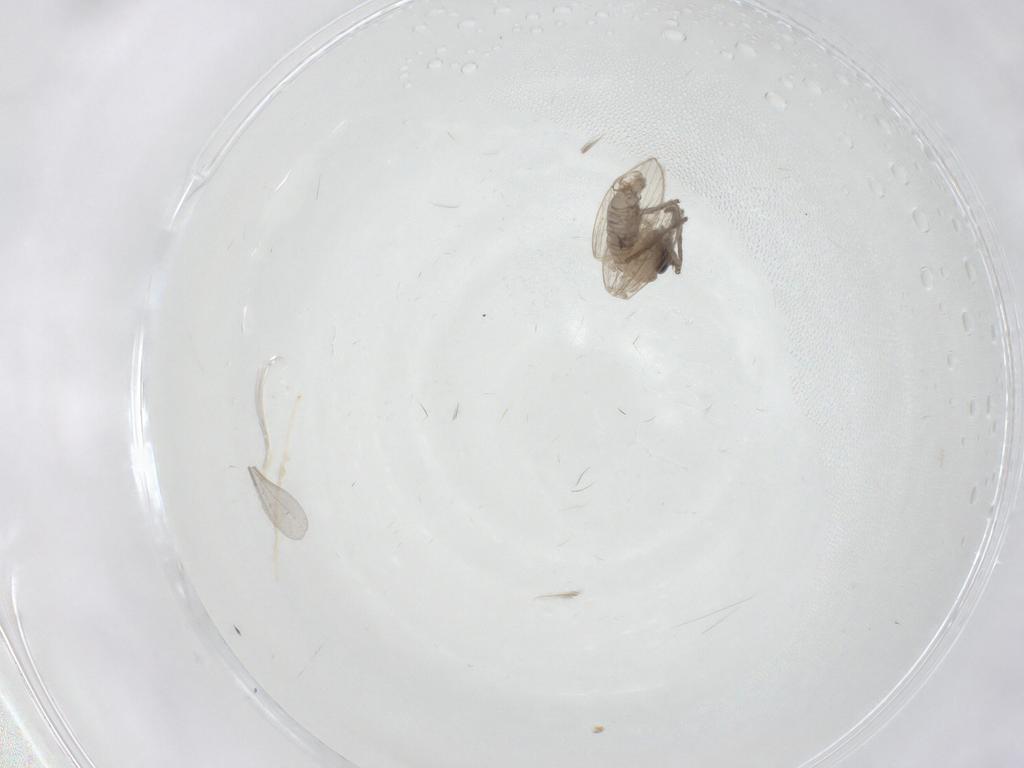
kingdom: Animalia
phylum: Arthropoda
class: Insecta
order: Diptera
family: Psychodidae
